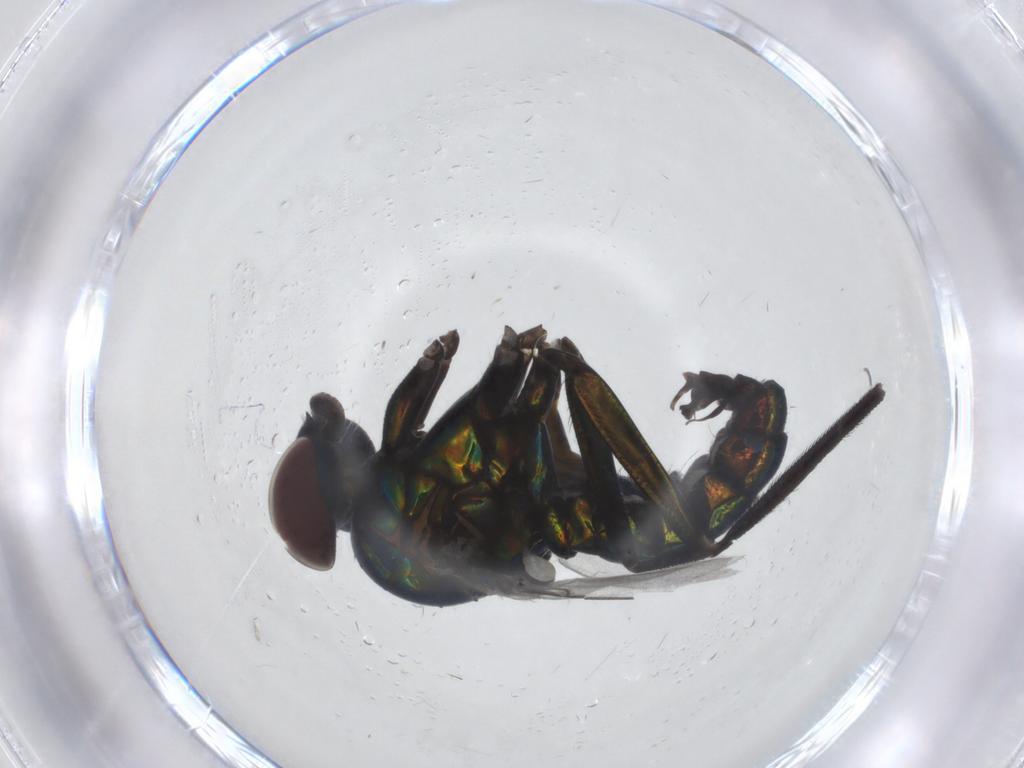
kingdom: Animalia
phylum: Arthropoda
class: Insecta
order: Diptera
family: Dolichopodidae
